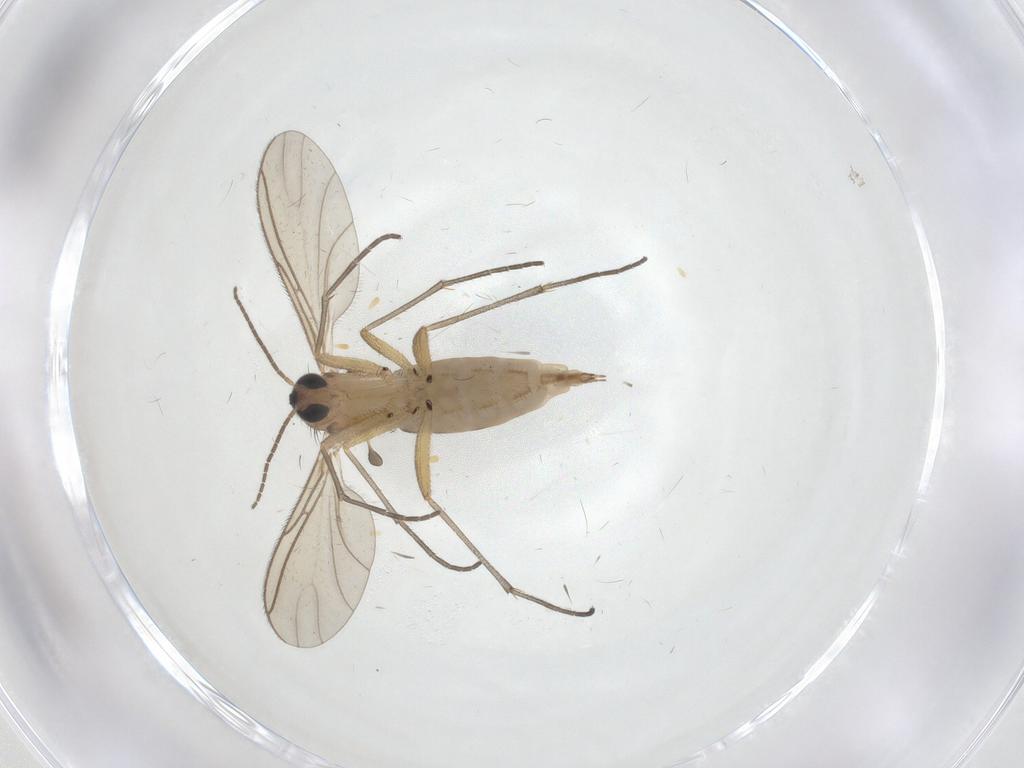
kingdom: Animalia
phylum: Arthropoda
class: Insecta
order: Diptera
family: Sciaridae
